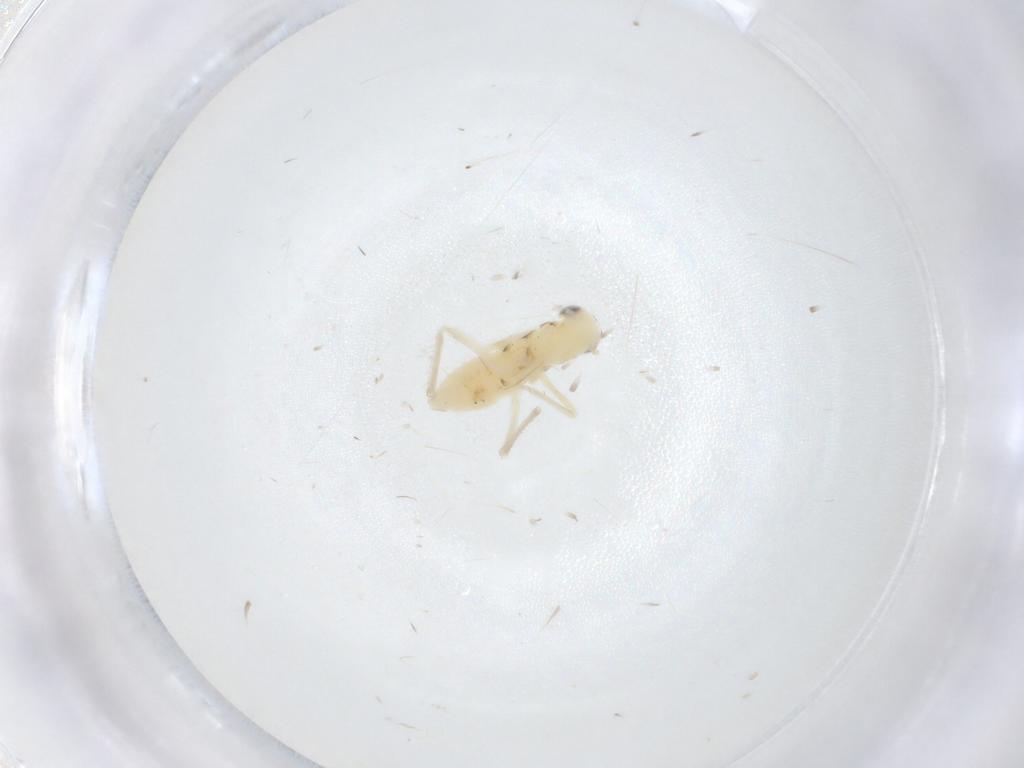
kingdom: Animalia
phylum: Arthropoda
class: Insecta
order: Hemiptera
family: Cicadellidae
